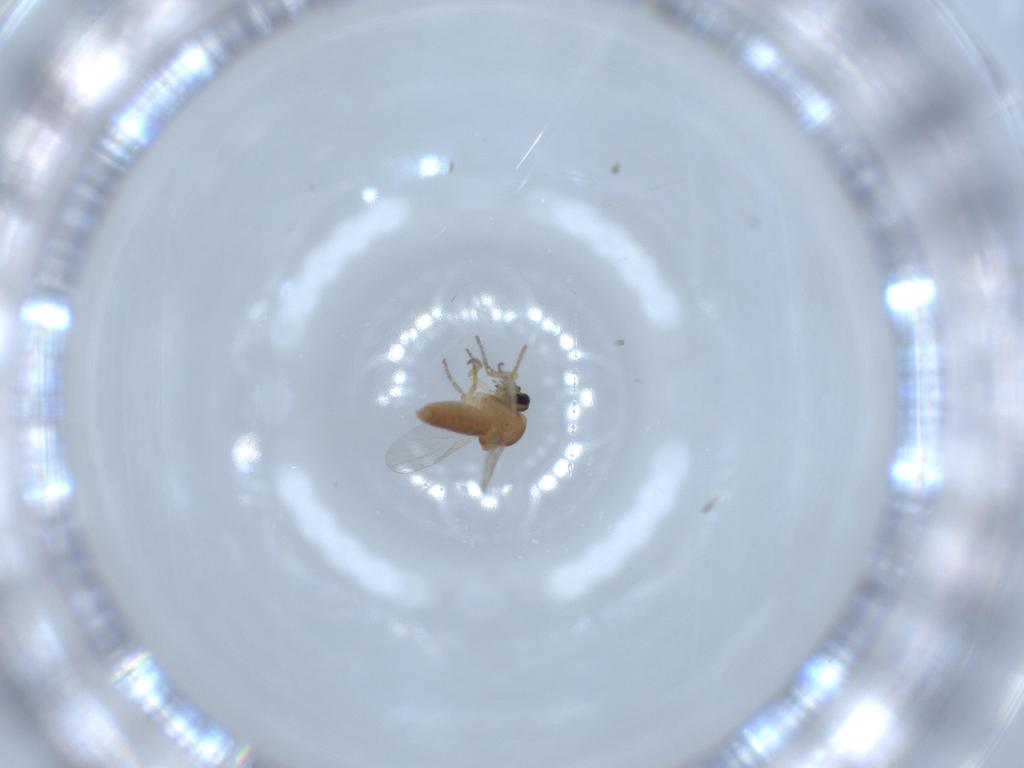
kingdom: Animalia
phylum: Arthropoda
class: Insecta
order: Diptera
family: Ceratopogonidae
